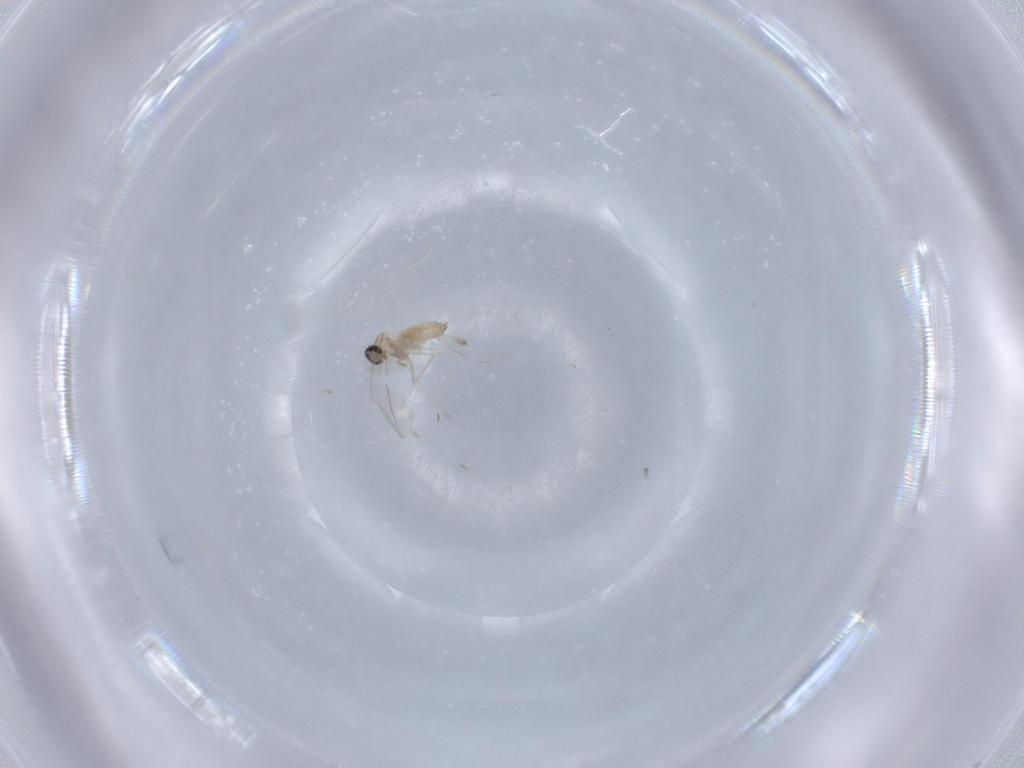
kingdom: Animalia
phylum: Arthropoda
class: Insecta
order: Diptera
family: Cecidomyiidae
